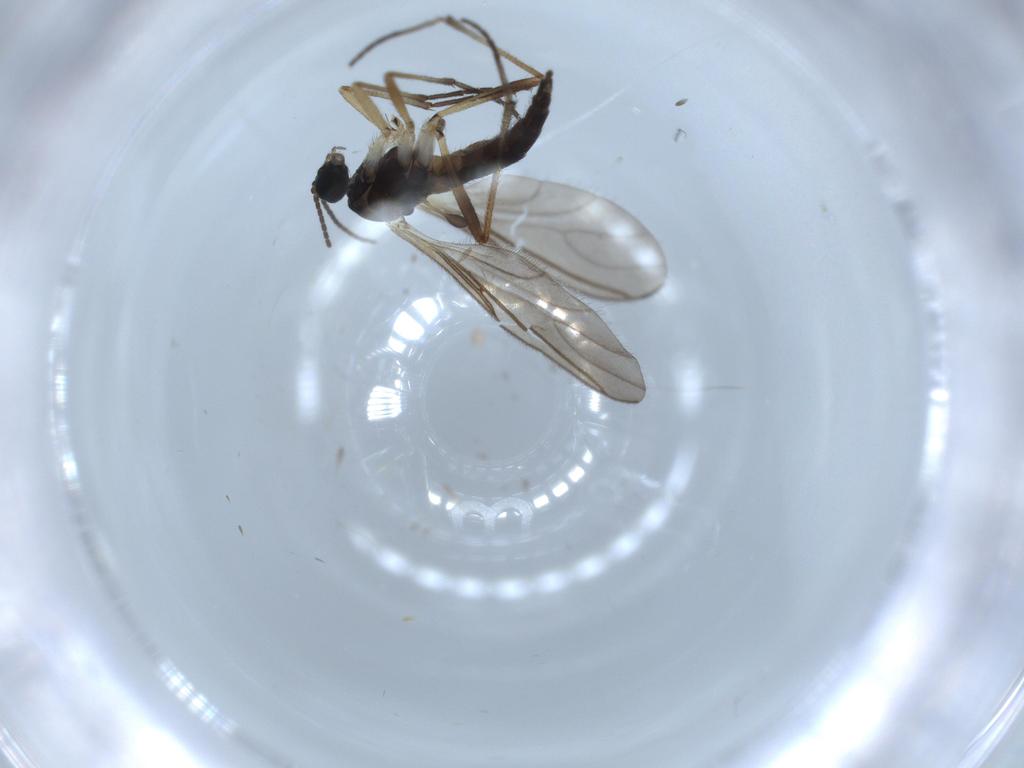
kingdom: Animalia
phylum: Arthropoda
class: Insecta
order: Diptera
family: Sciaridae
